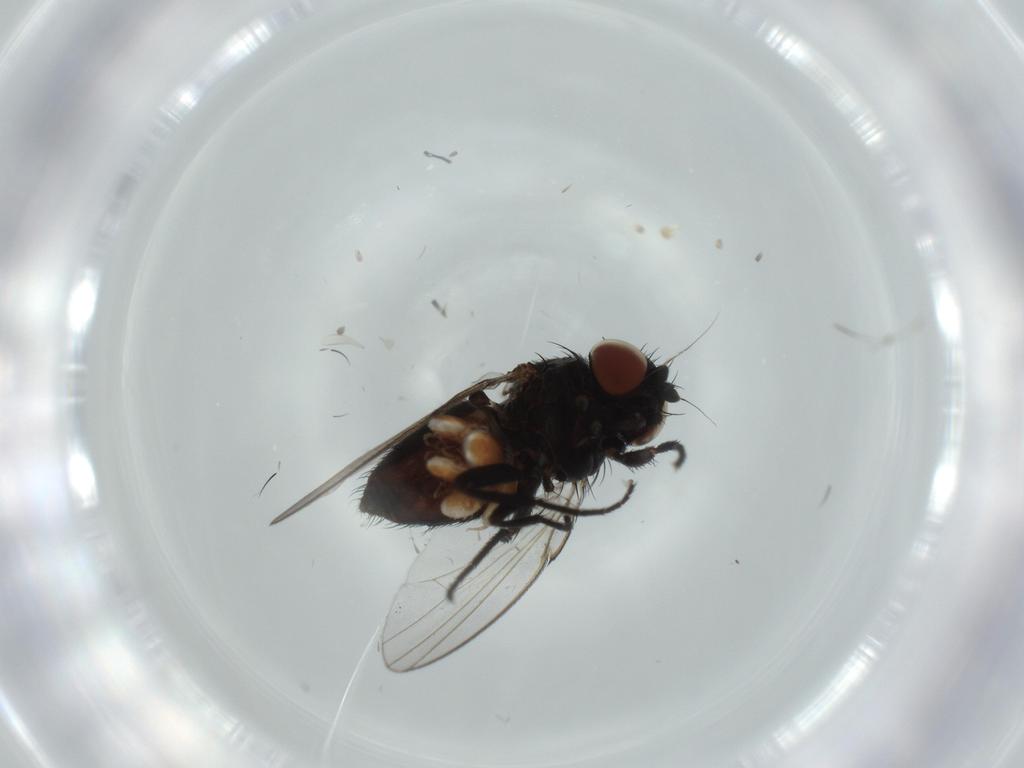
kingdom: Animalia
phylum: Arthropoda
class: Insecta
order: Diptera
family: Milichiidae
